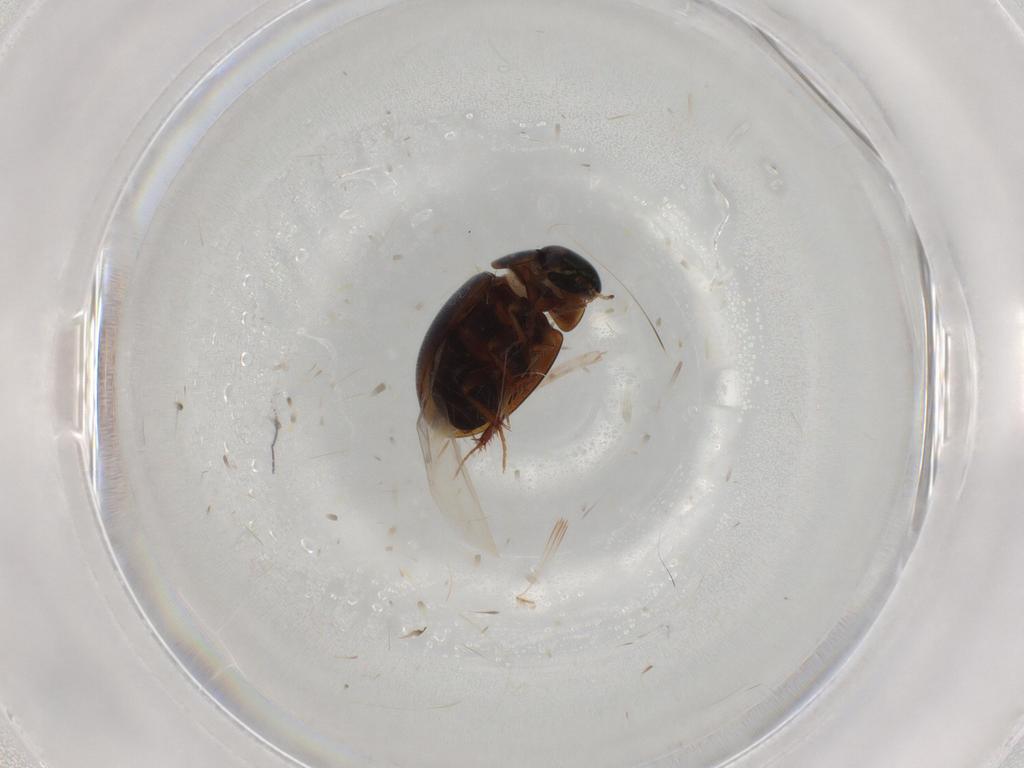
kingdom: Animalia
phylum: Arthropoda
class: Insecta
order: Coleoptera
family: Hydrophilidae
